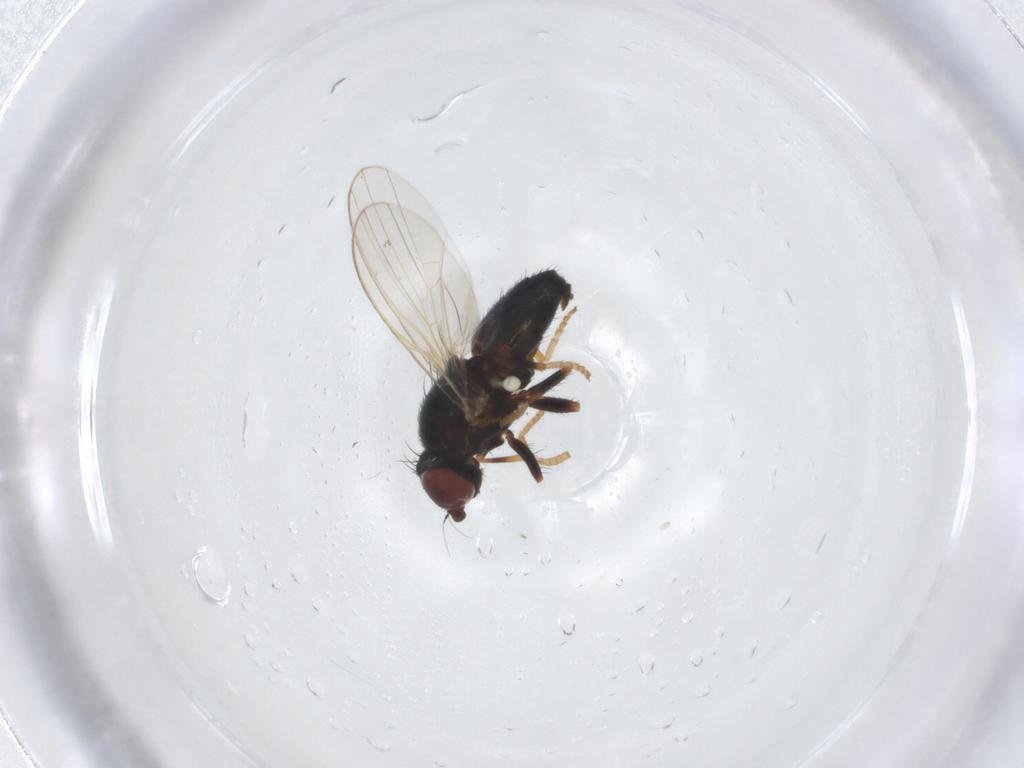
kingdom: Animalia
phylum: Arthropoda
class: Insecta
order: Diptera
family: Chamaemyiidae
